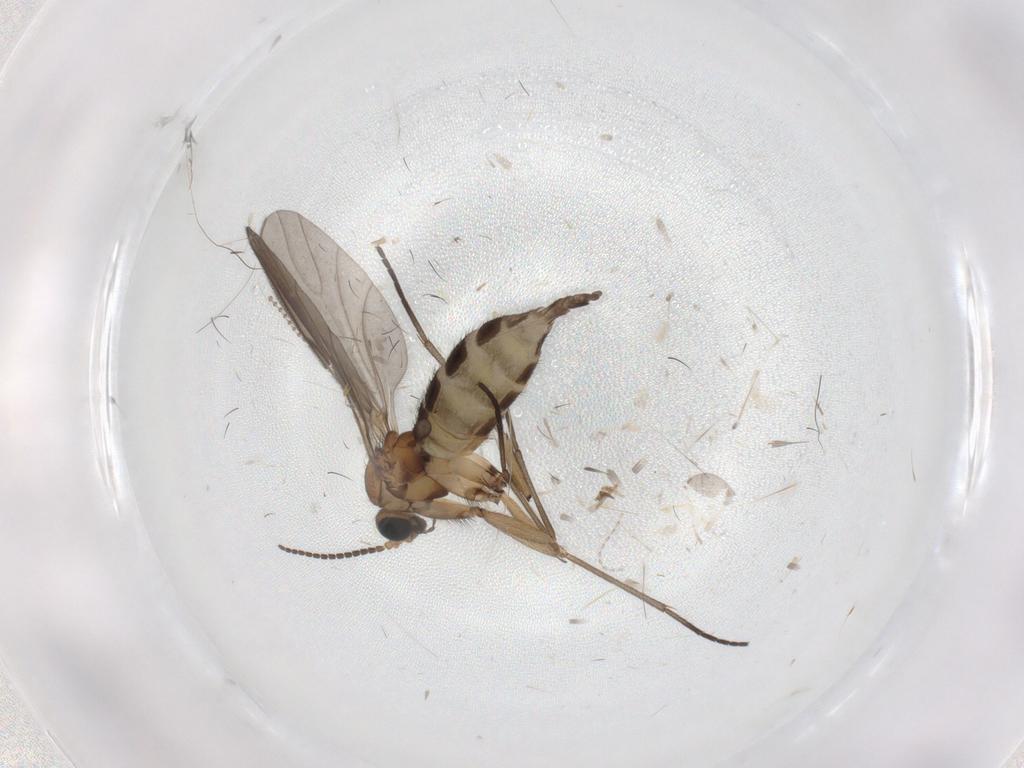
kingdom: Animalia
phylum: Arthropoda
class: Insecta
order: Diptera
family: Sciaridae
